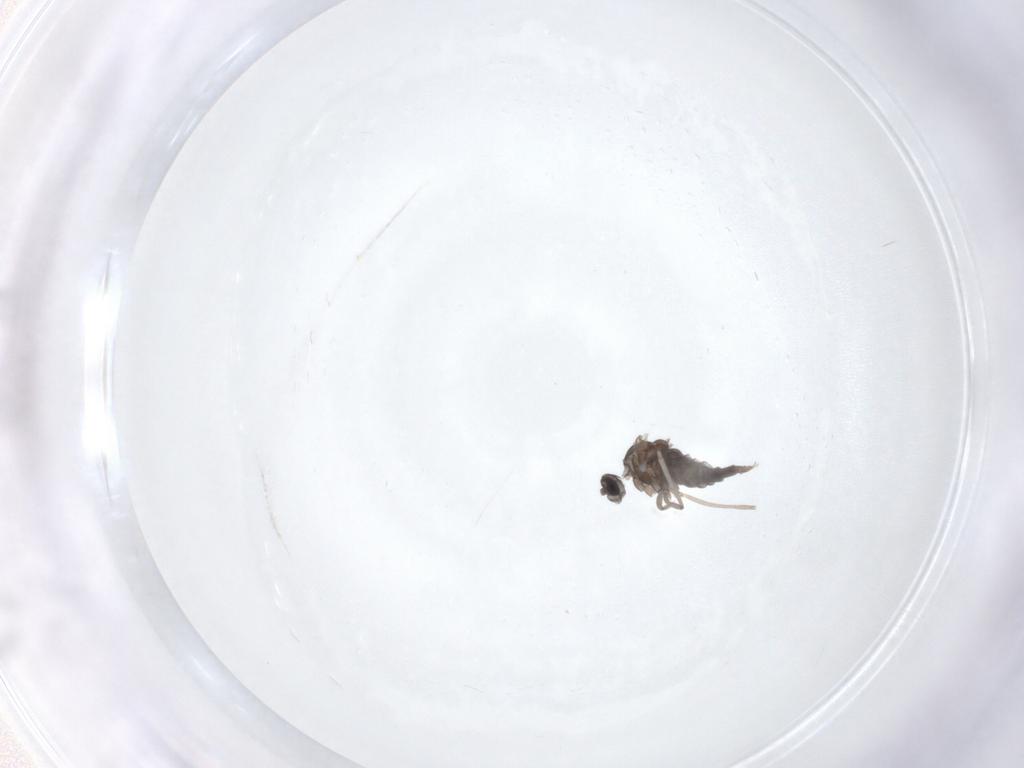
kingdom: Animalia
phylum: Arthropoda
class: Insecta
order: Diptera
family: Cecidomyiidae
